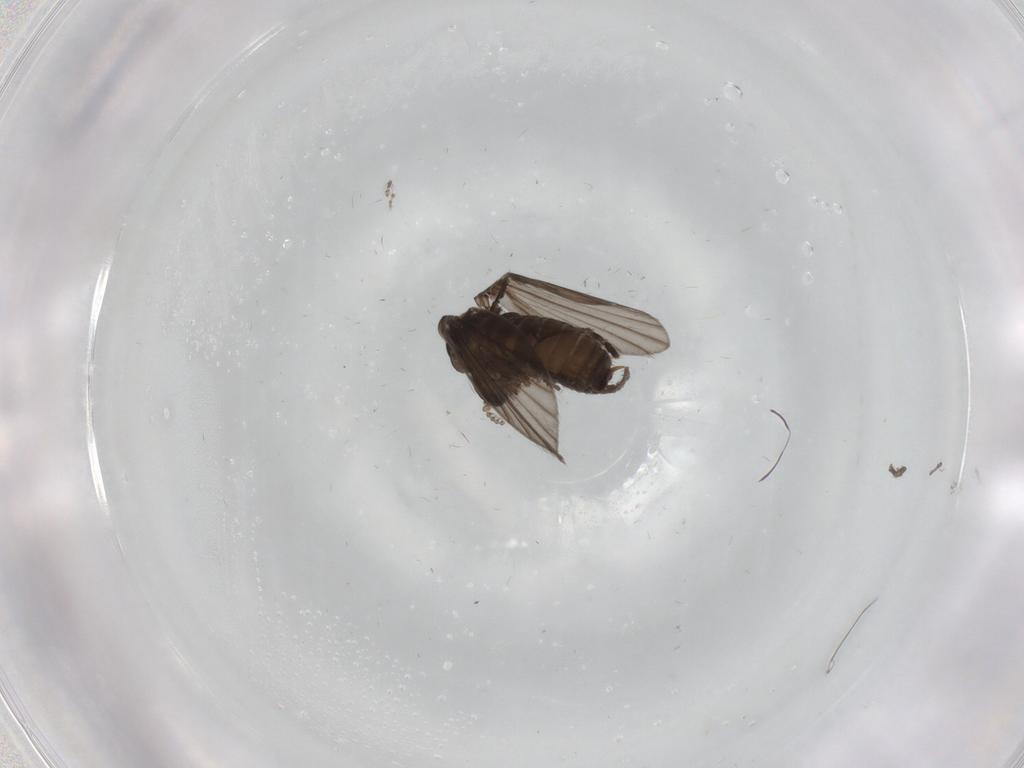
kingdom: Animalia
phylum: Arthropoda
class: Insecta
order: Diptera
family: Psychodidae
